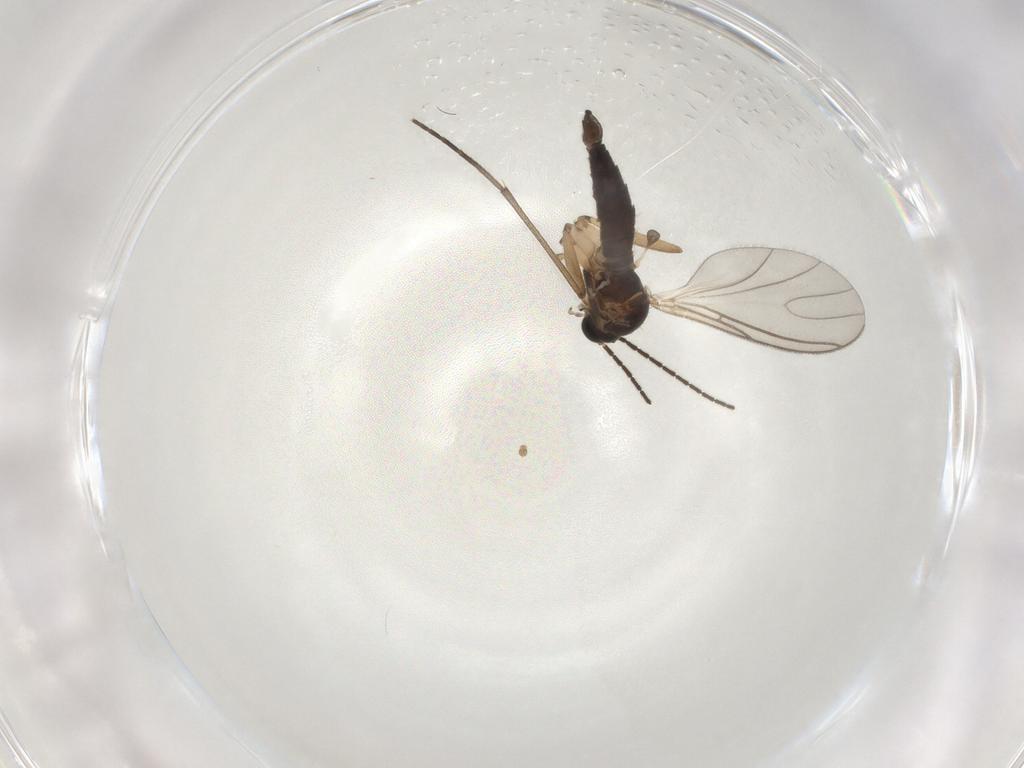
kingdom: Animalia
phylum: Arthropoda
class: Insecta
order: Diptera
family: Sciaridae
